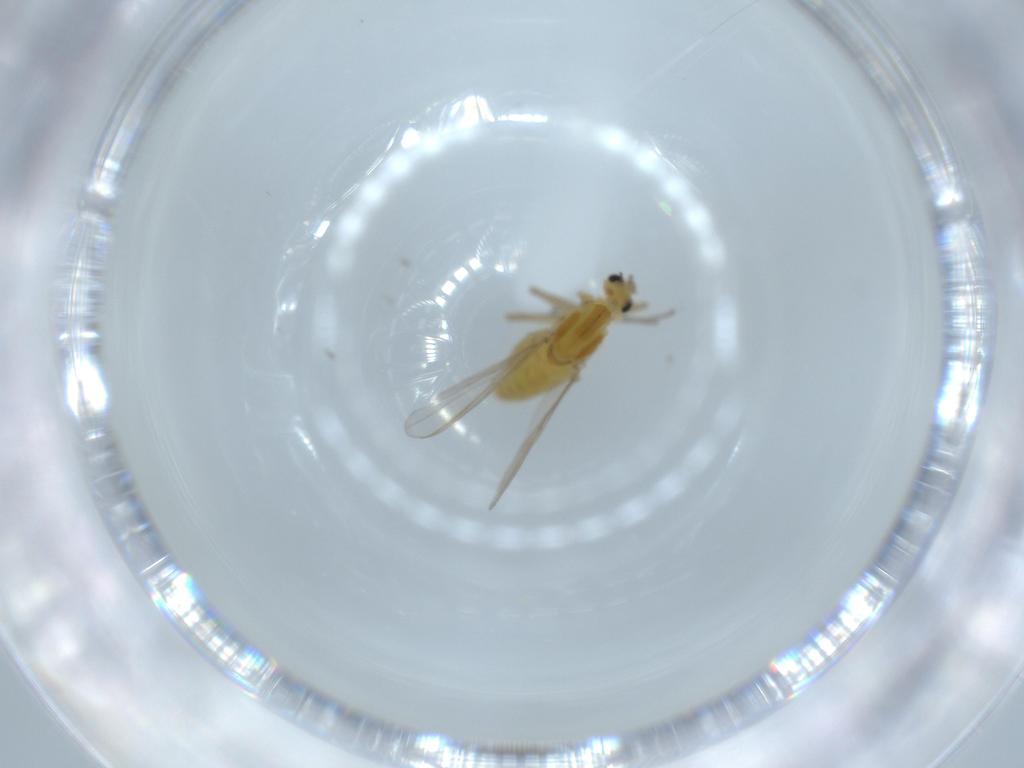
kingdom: Animalia
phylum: Arthropoda
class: Insecta
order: Diptera
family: Chironomidae
